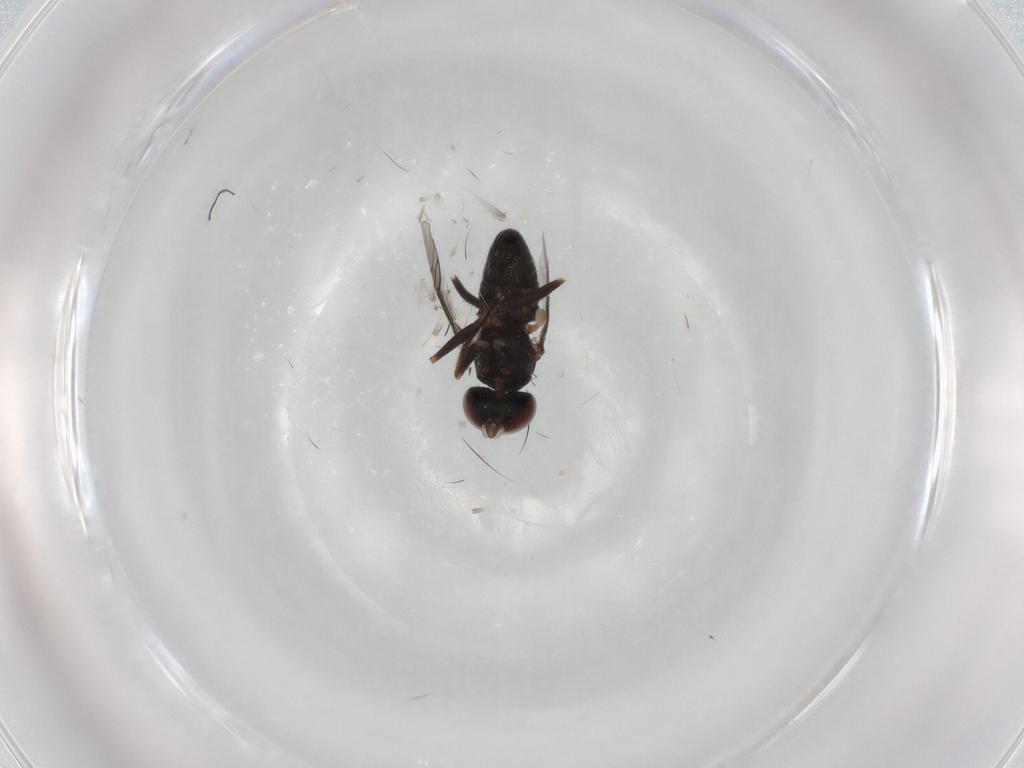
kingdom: Animalia
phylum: Arthropoda
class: Insecta
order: Diptera
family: Dolichopodidae
